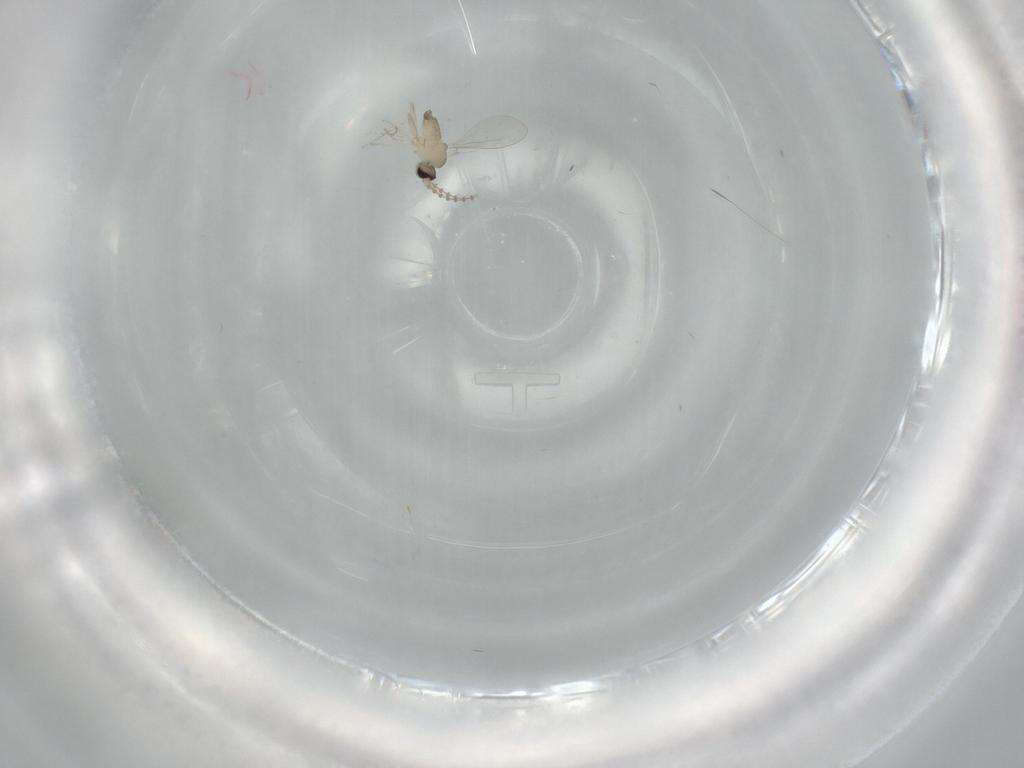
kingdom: Animalia
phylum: Arthropoda
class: Insecta
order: Diptera
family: Cecidomyiidae
